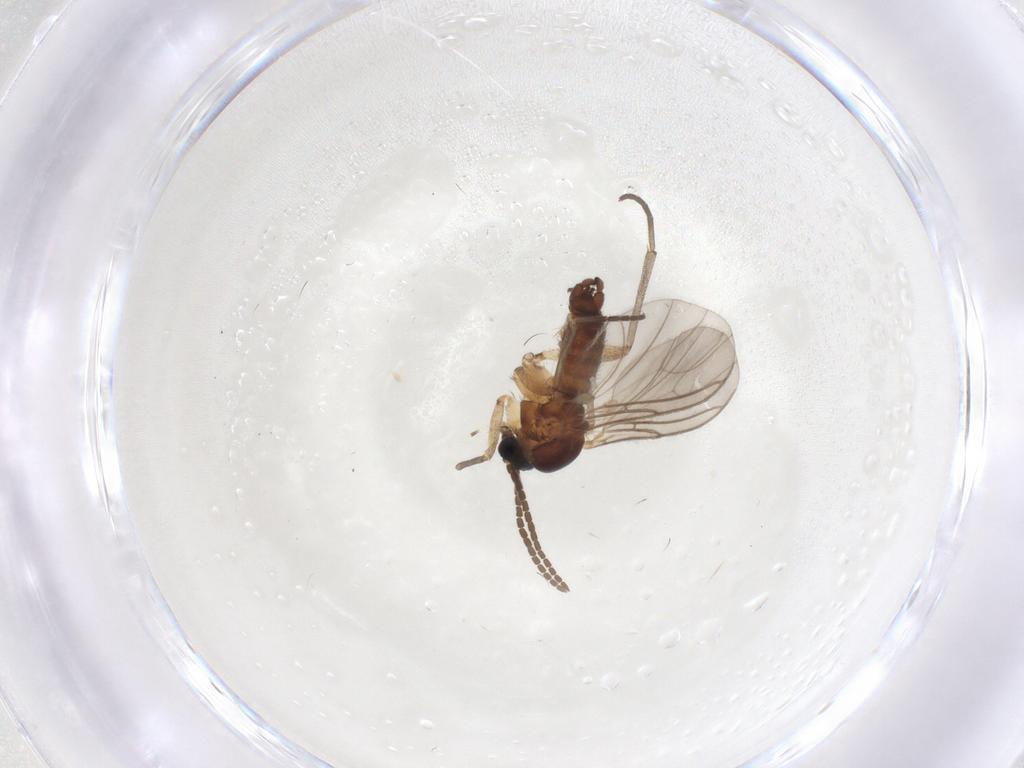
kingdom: Animalia
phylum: Arthropoda
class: Insecta
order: Diptera
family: Sciaridae
